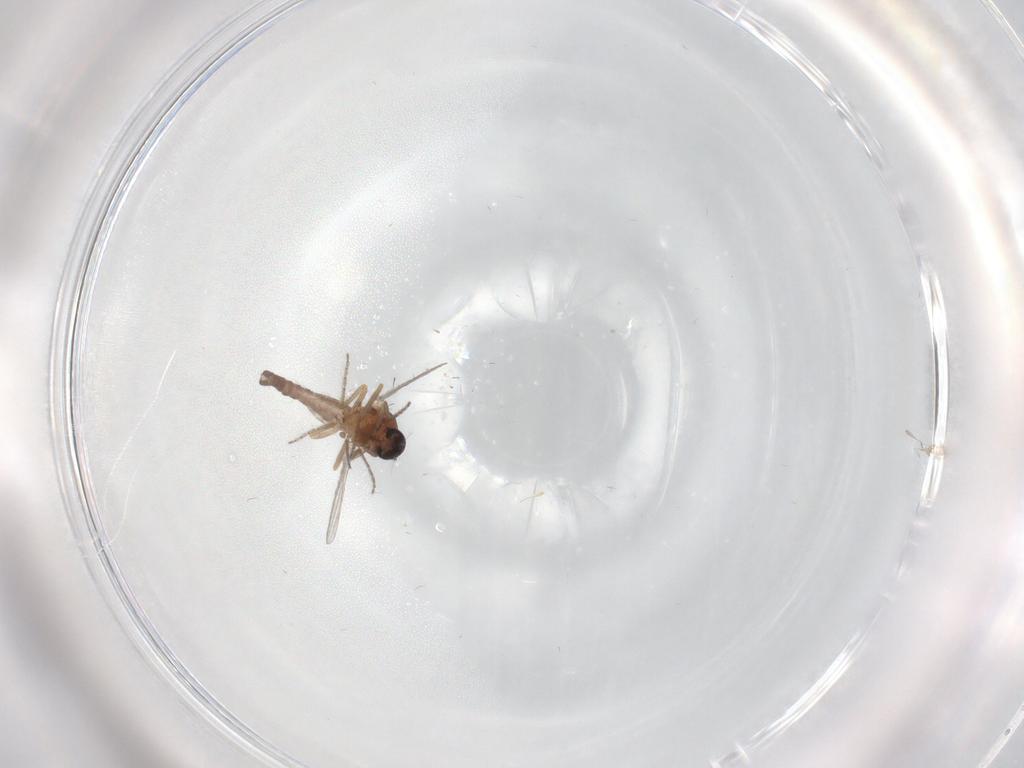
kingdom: Animalia
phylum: Arthropoda
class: Insecta
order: Diptera
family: Ceratopogonidae
